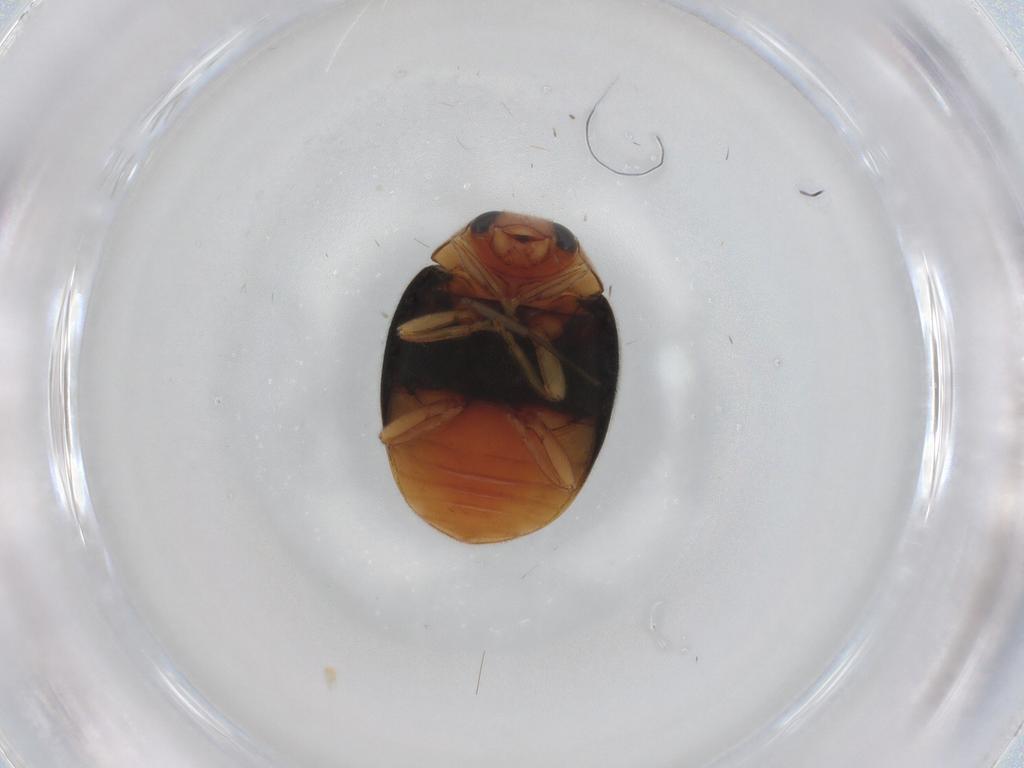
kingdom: Animalia
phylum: Arthropoda
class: Insecta
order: Coleoptera
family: Coccinellidae
